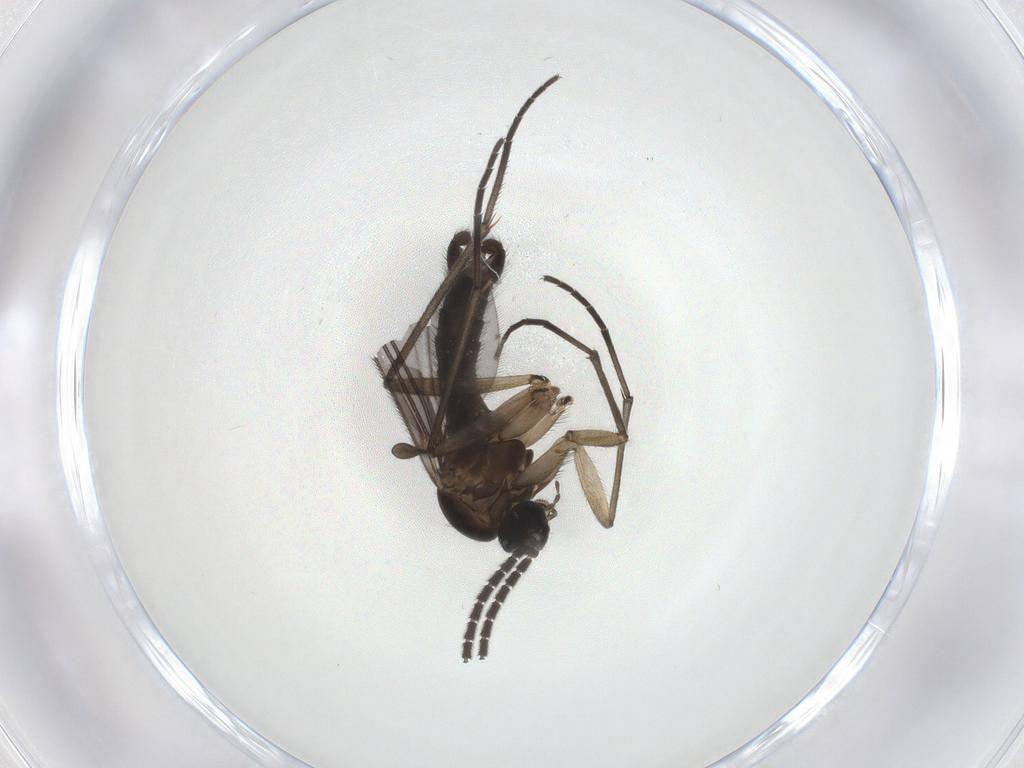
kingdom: Animalia
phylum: Arthropoda
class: Insecta
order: Diptera
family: Sciaridae
